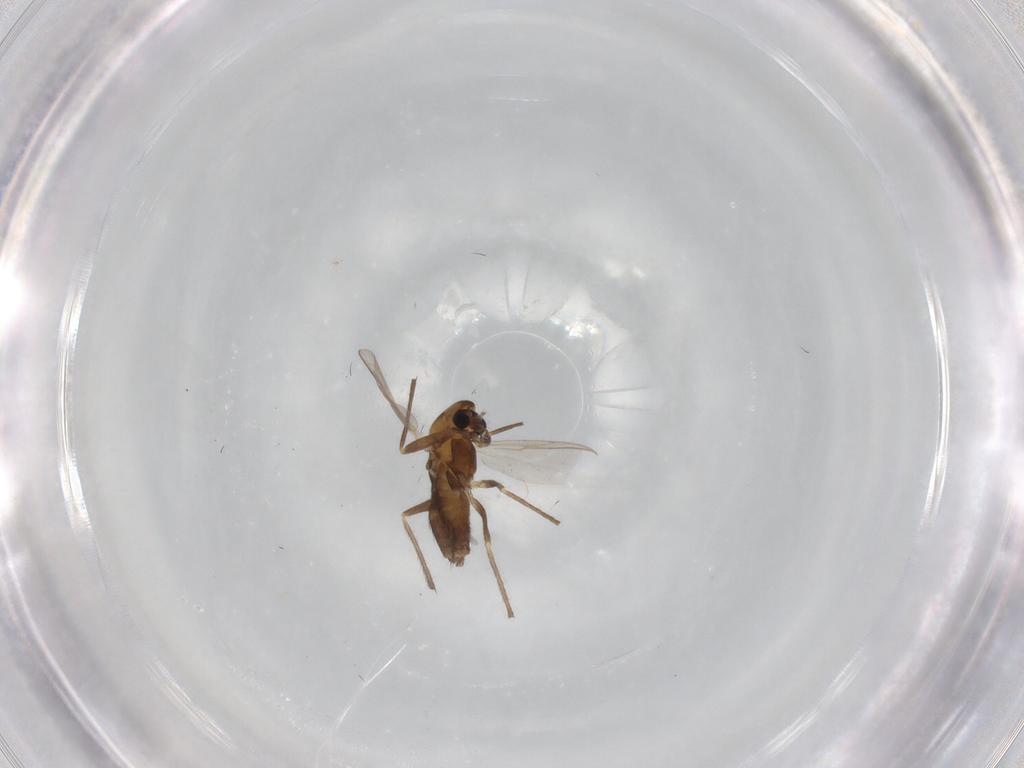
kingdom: Animalia
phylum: Arthropoda
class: Insecta
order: Diptera
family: Chironomidae
